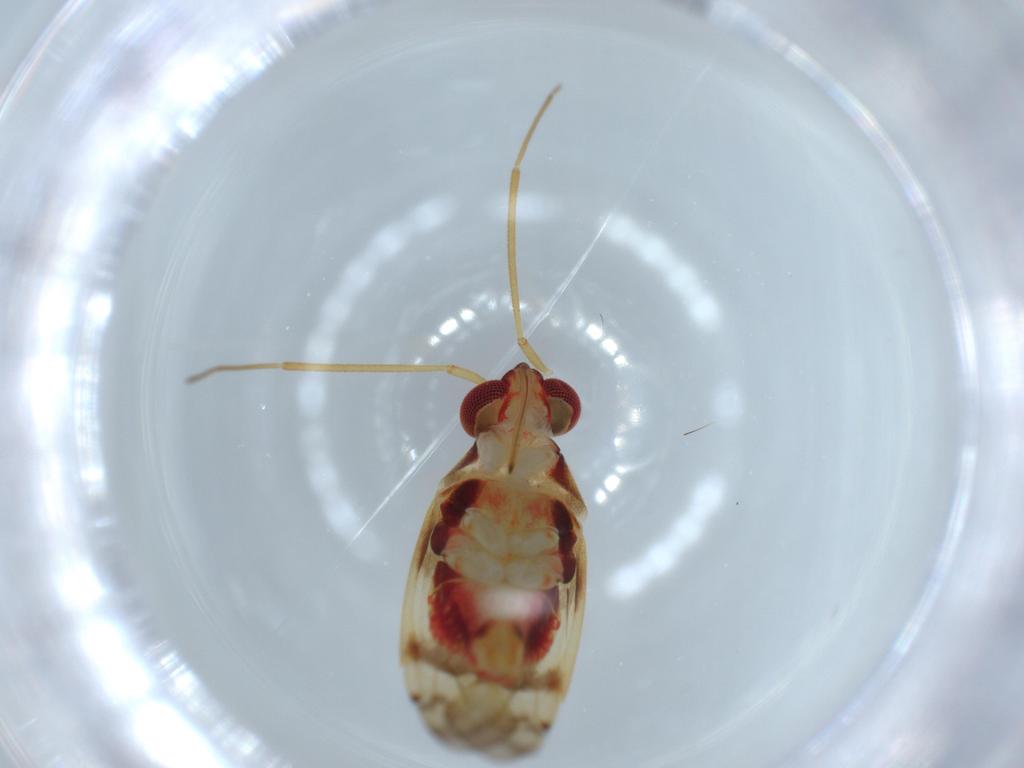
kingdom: Animalia
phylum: Arthropoda
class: Insecta
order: Hemiptera
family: Miridae
